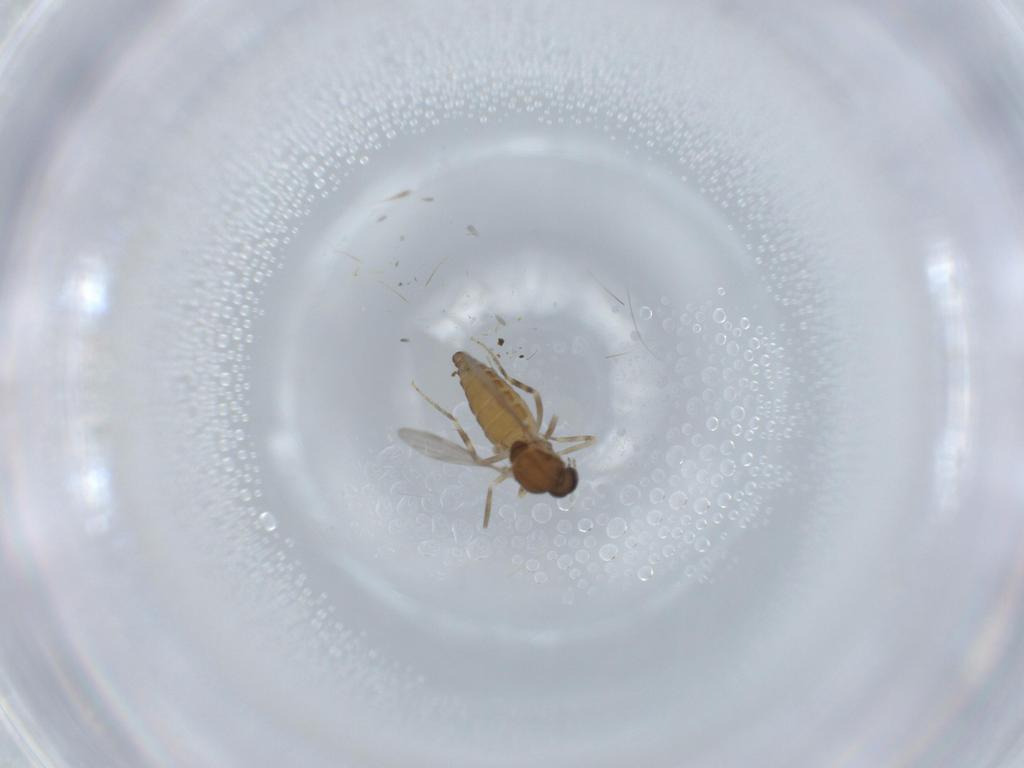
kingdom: Animalia
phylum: Arthropoda
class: Insecta
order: Diptera
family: Ceratopogonidae
